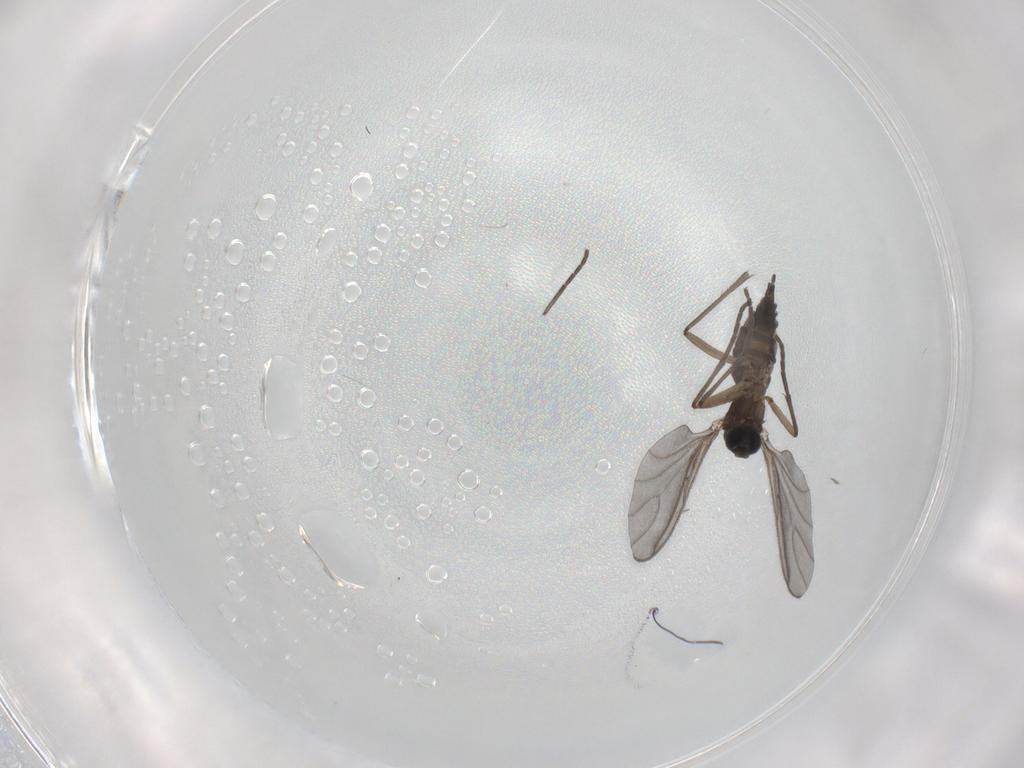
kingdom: Animalia
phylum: Arthropoda
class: Insecta
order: Diptera
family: Sciaridae
